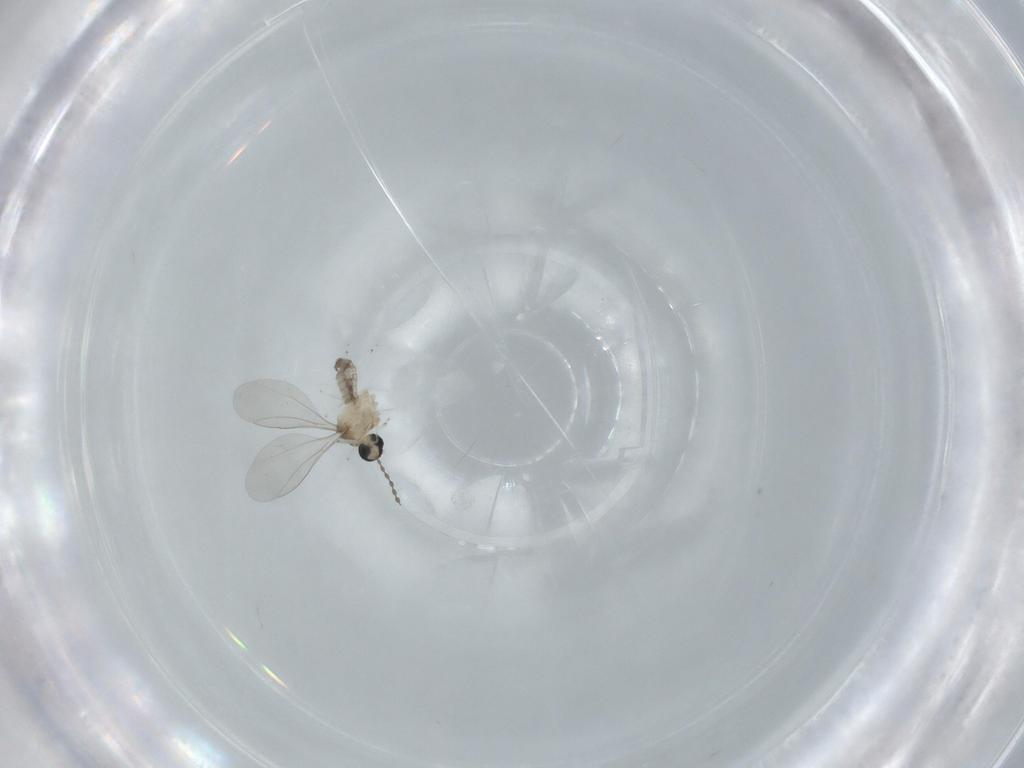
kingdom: Animalia
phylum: Arthropoda
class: Insecta
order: Diptera
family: Cecidomyiidae
